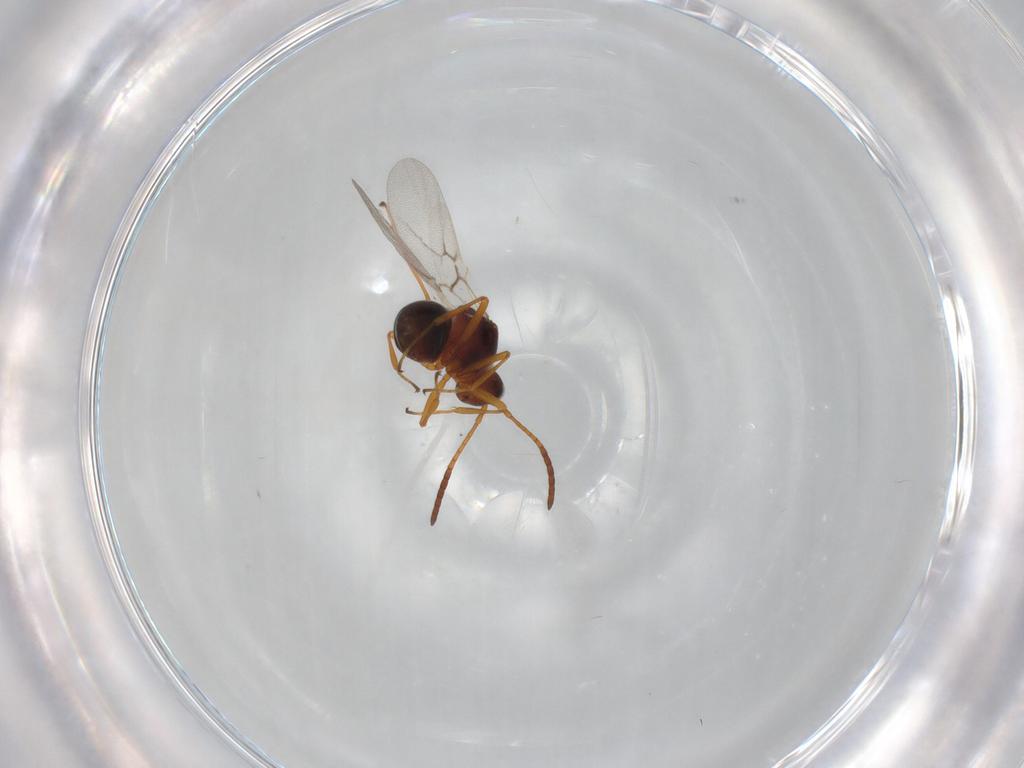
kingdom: Animalia
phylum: Arthropoda
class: Insecta
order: Hymenoptera
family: Figitidae
